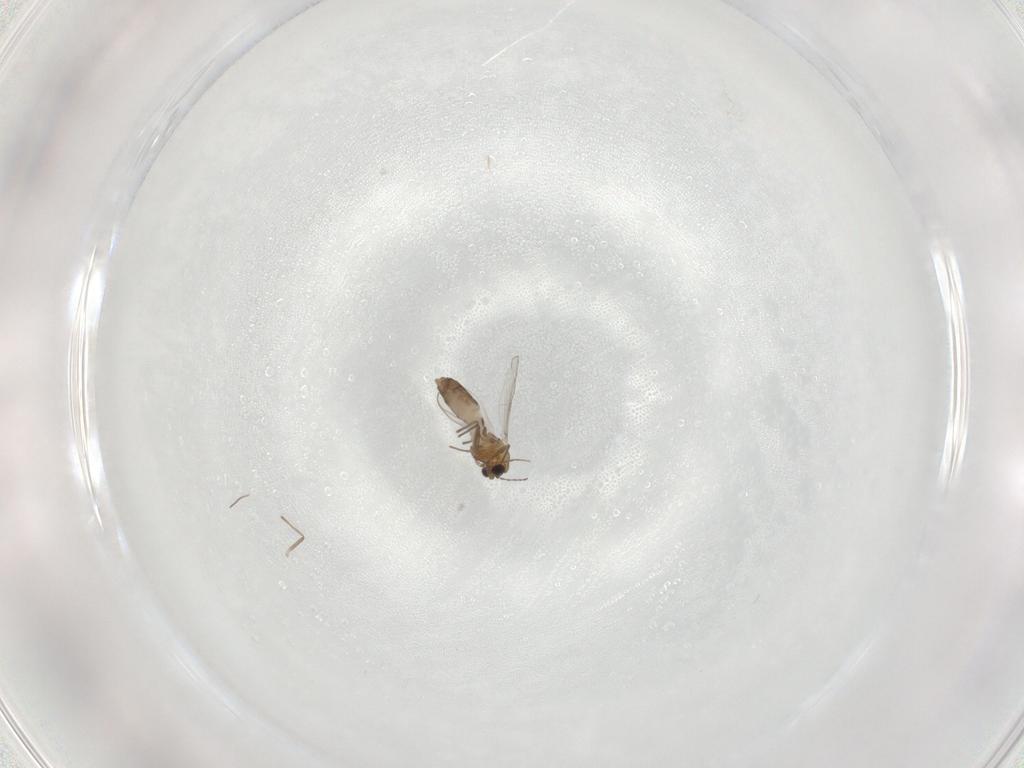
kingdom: Animalia
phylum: Arthropoda
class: Insecta
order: Diptera
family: Chironomidae
